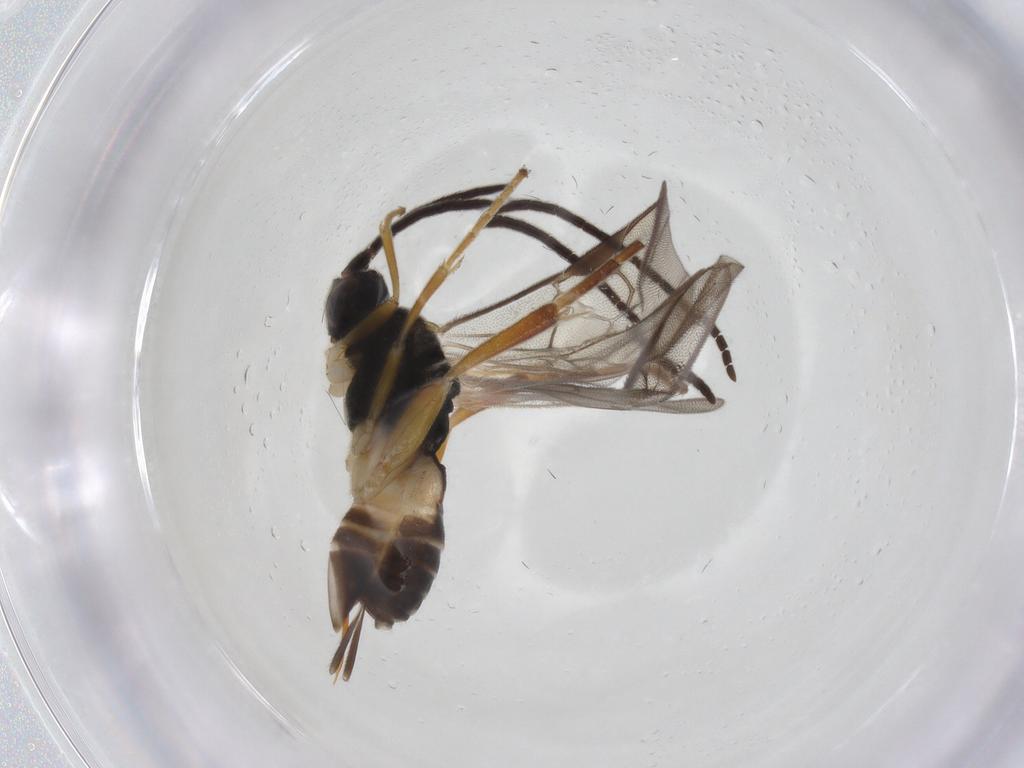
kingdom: Animalia
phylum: Arthropoda
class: Insecta
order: Hymenoptera
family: Braconidae
